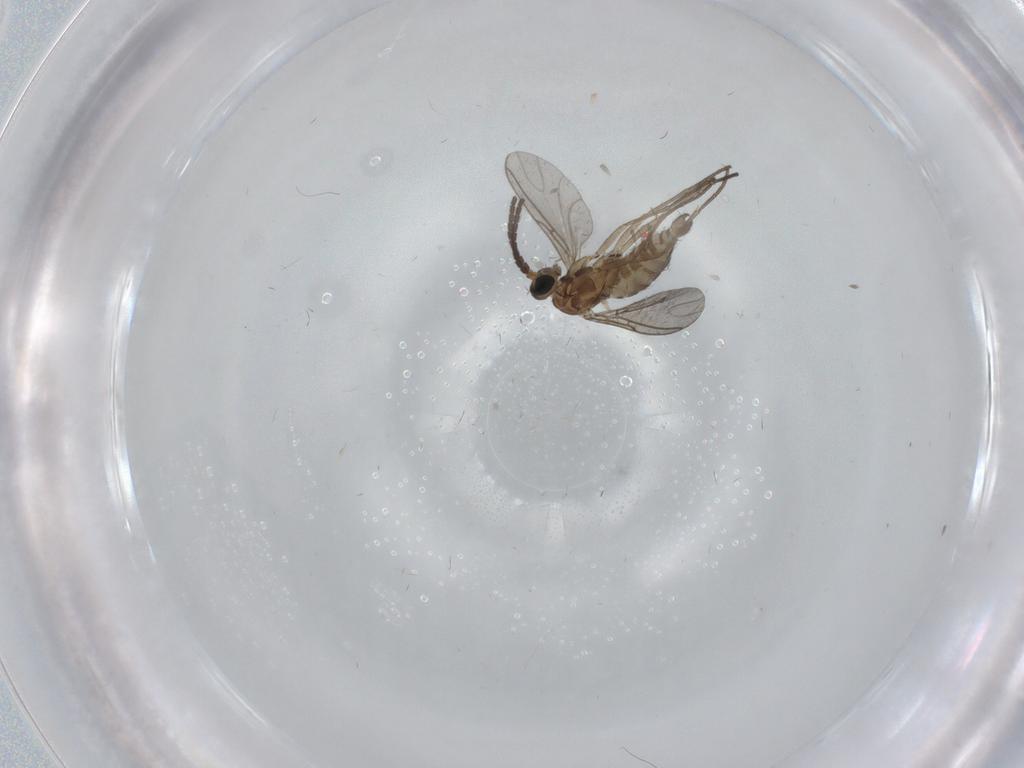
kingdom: Animalia
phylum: Arthropoda
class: Insecta
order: Diptera
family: Sciaridae
